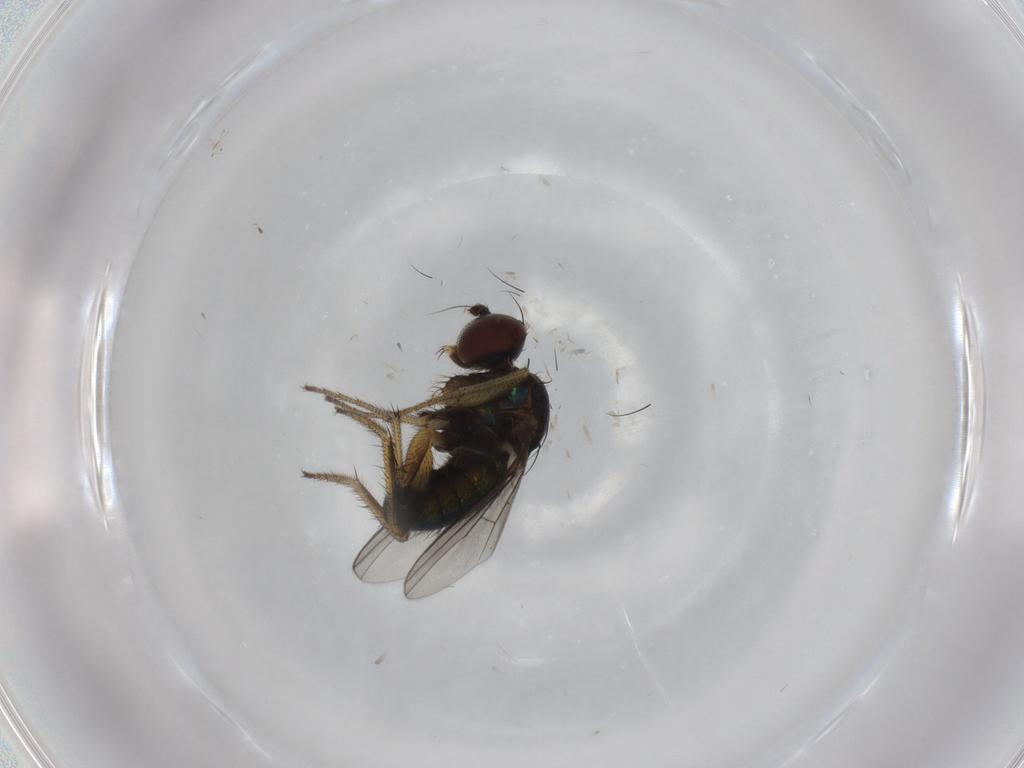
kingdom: Animalia
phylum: Arthropoda
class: Insecta
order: Diptera
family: Dolichopodidae
